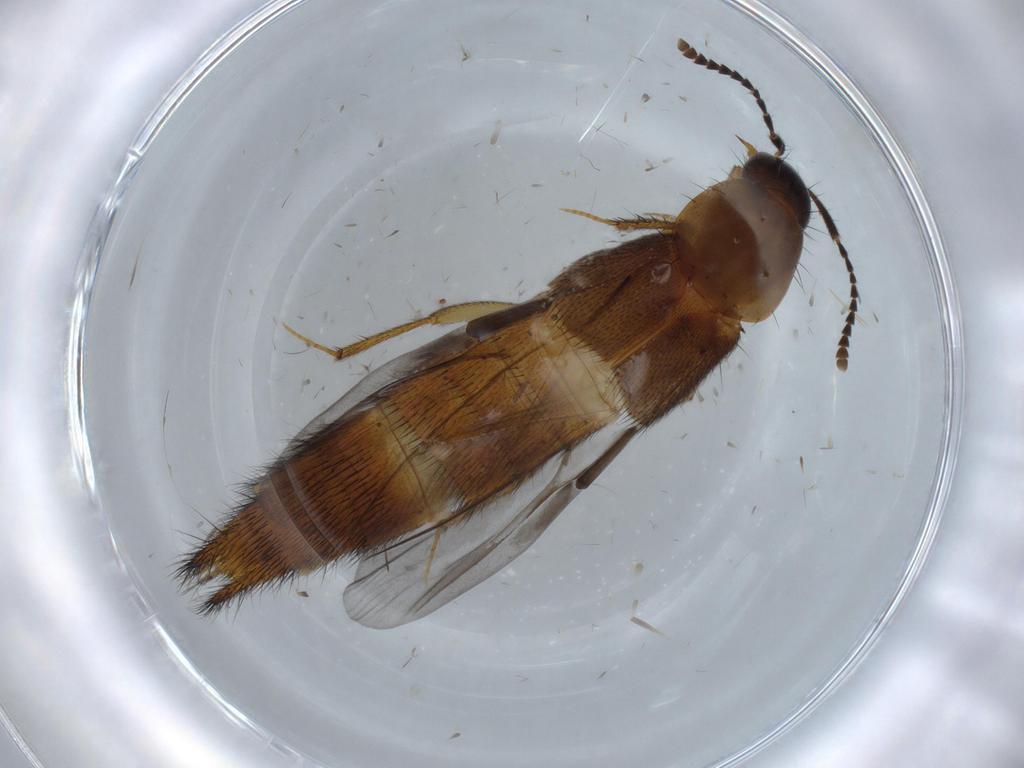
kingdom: Animalia
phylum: Arthropoda
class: Insecta
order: Coleoptera
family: Staphylinidae
